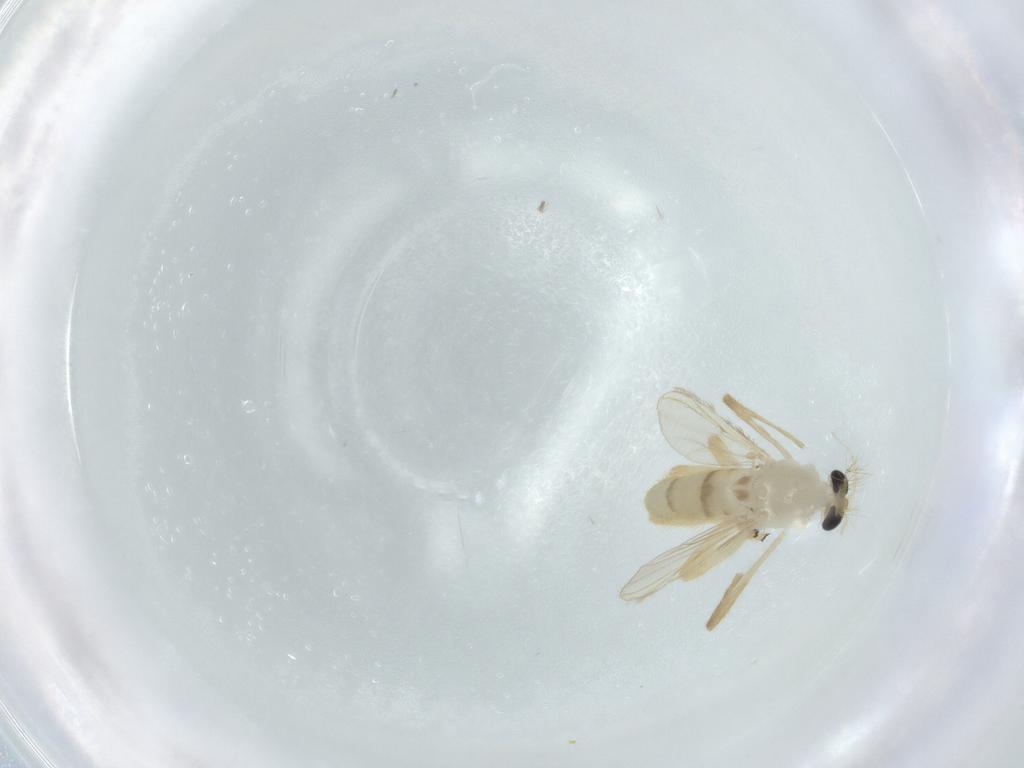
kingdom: Animalia
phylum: Arthropoda
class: Insecta
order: Diptera
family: Chironomidae
